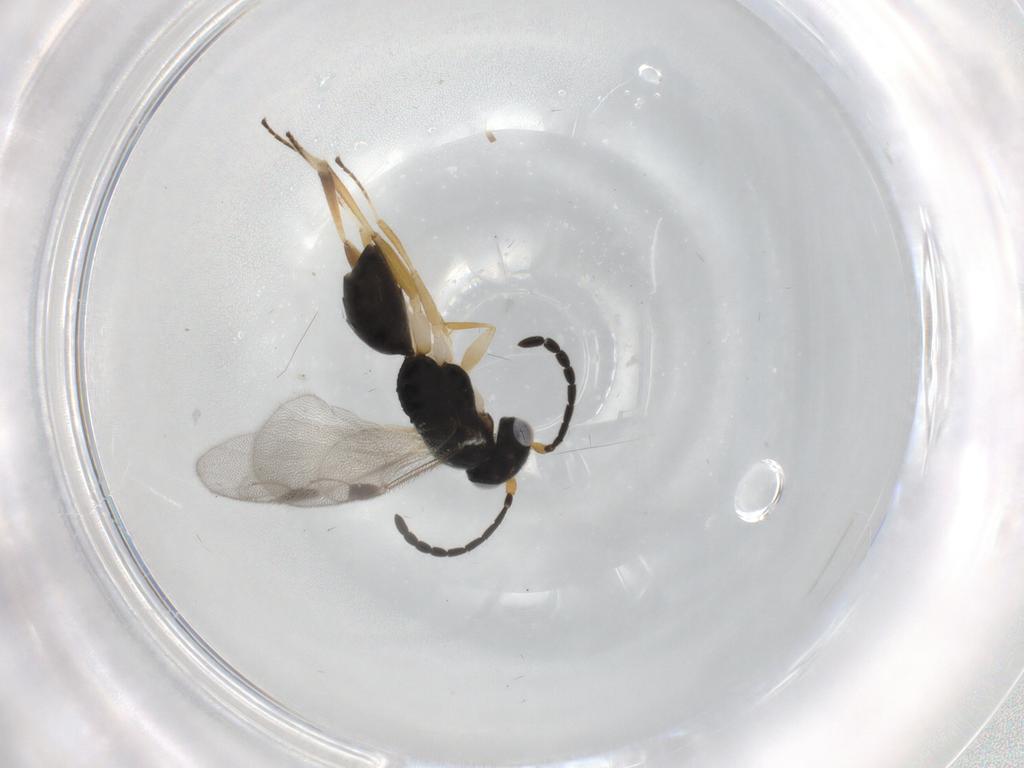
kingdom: Animalia
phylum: Arthropoda
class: Insecta
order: Hymenoptera
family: Dryinidae
